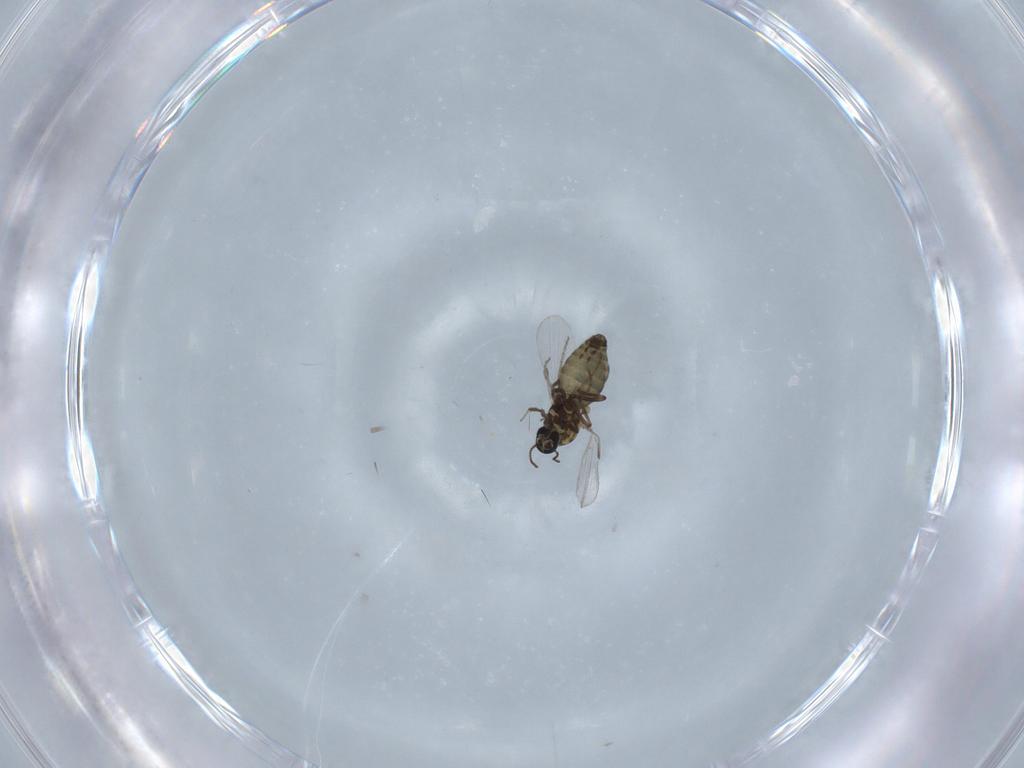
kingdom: Animalia
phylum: Arthropoda
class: Insecta
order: Diptera
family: Ceratopogonidae
